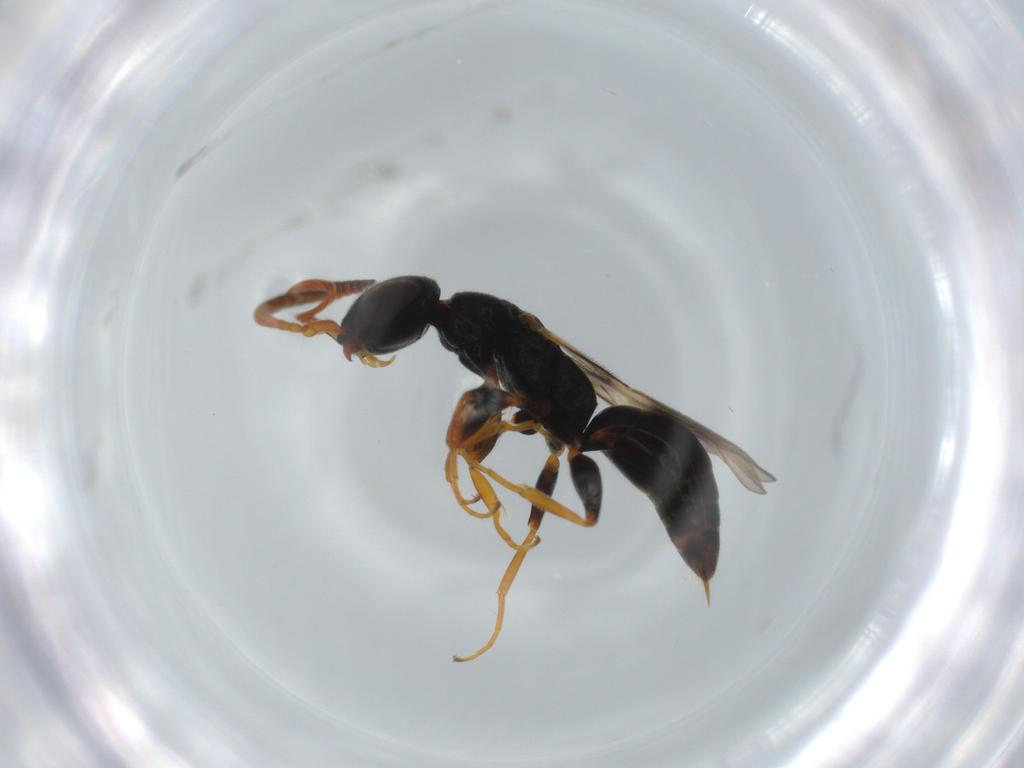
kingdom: Animalia
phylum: Arthropoda
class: Insecta
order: Hymenoptera
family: Bethylidae
